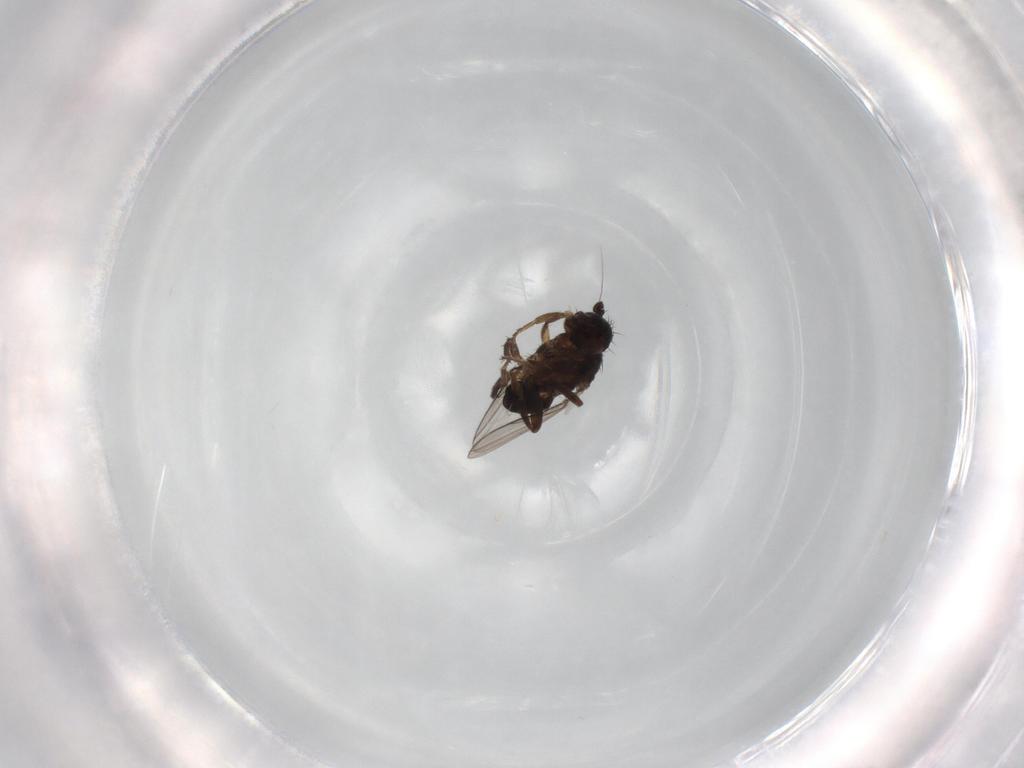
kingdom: Animalia
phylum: Arthropoda
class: Insecta
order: Diptera
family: Sphaeroceridae
